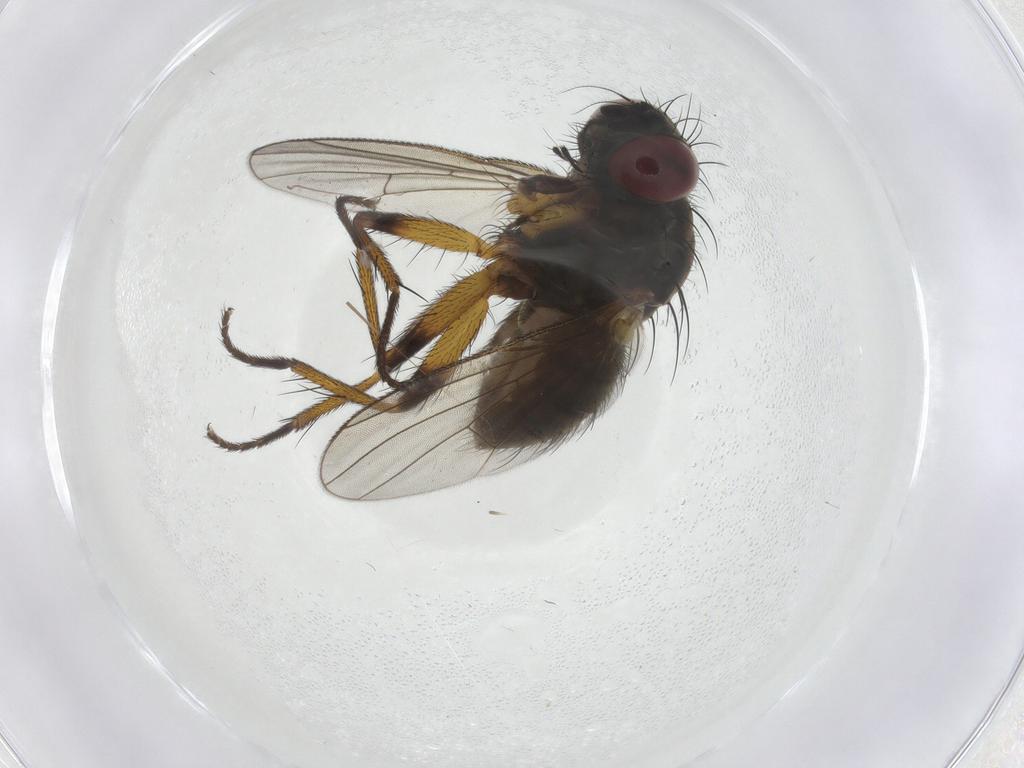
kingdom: Animalia
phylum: Arthropoda
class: Insecta
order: Diptera
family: Muscidae
